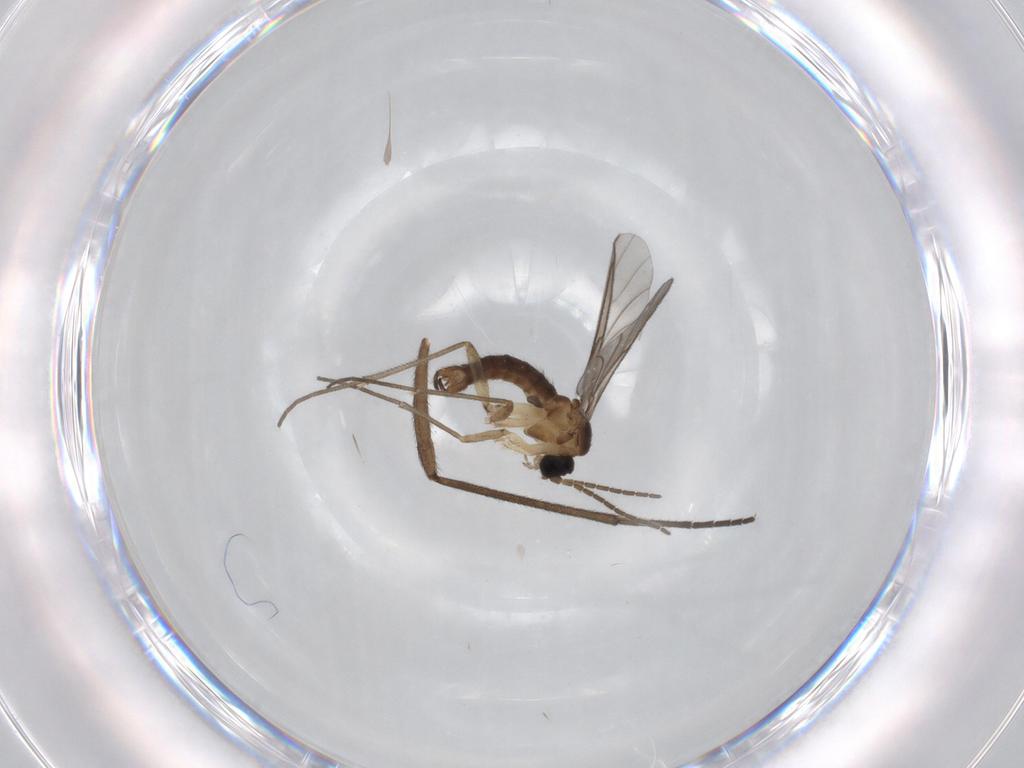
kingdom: Animalia
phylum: Arthropoda
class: Insecta
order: Diptera
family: Sciaridae
